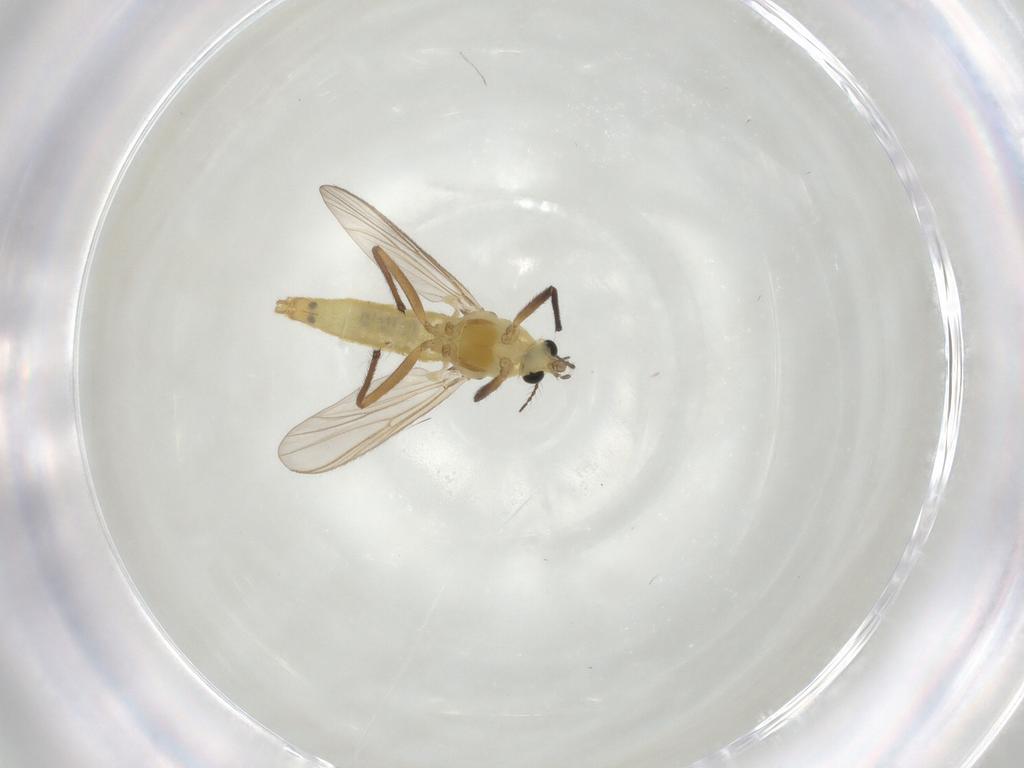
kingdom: Animalia
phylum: Arthropoda
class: Insecta
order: Diptera
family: Chironomidae
